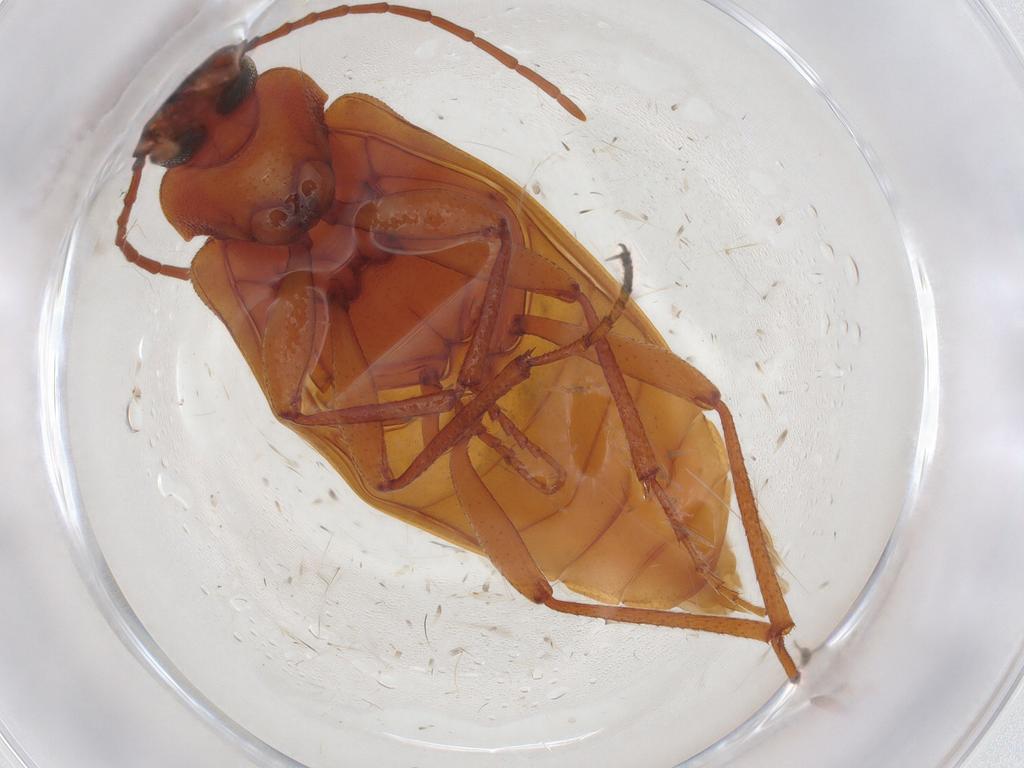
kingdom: Animalia
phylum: Arthropoda
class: Insecta
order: Coleoptera
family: Tenebrionidae
